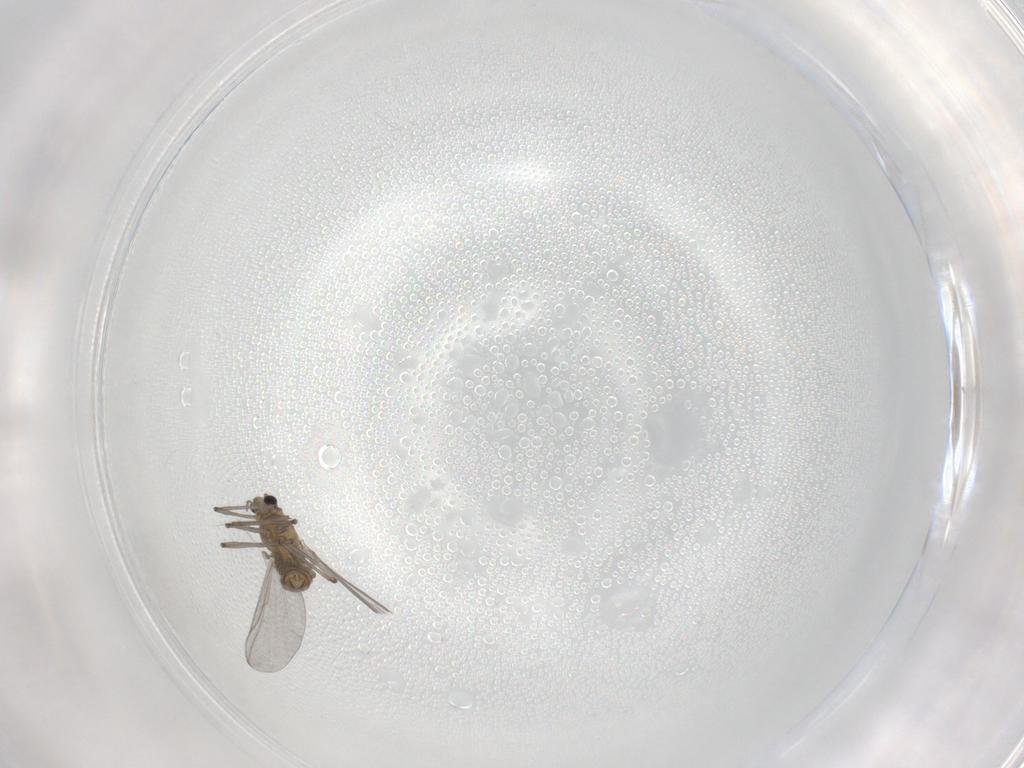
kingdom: Animalia
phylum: Arthropoda
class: Insecta
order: Diptera
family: Chironomidae
